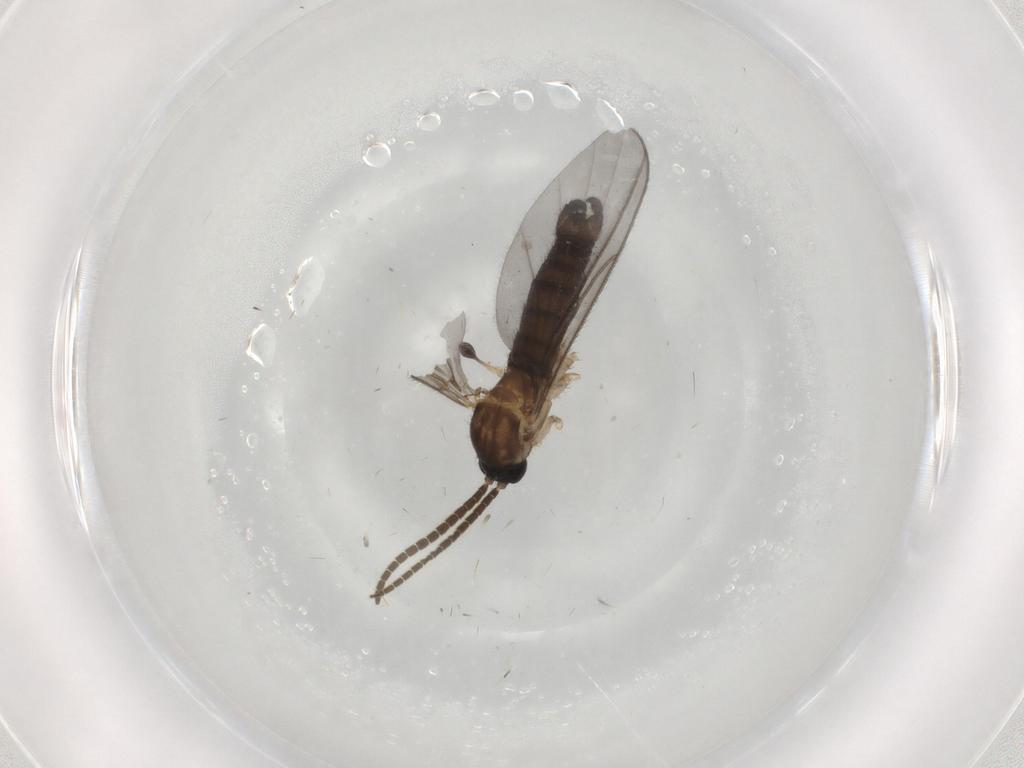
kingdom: Animalia
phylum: Arthropoda
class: Insecta
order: Diptera
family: Sciaridae
